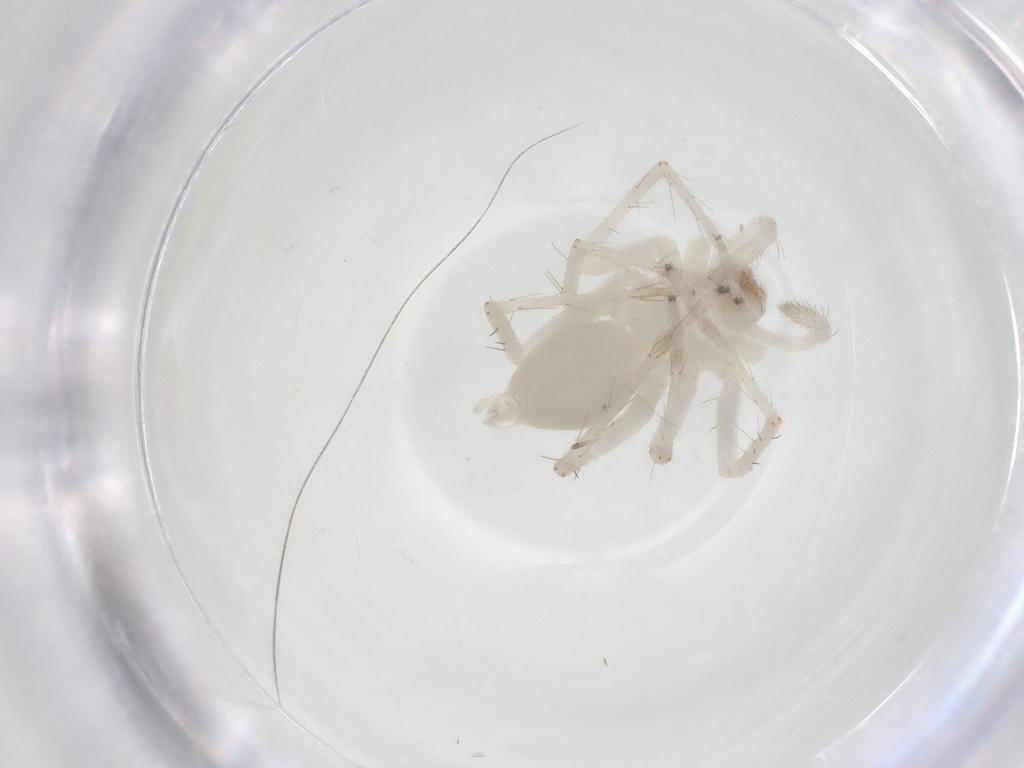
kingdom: Animalia
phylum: Arthropoda
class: Arachnida
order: Araneae
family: Anyphaenidae
